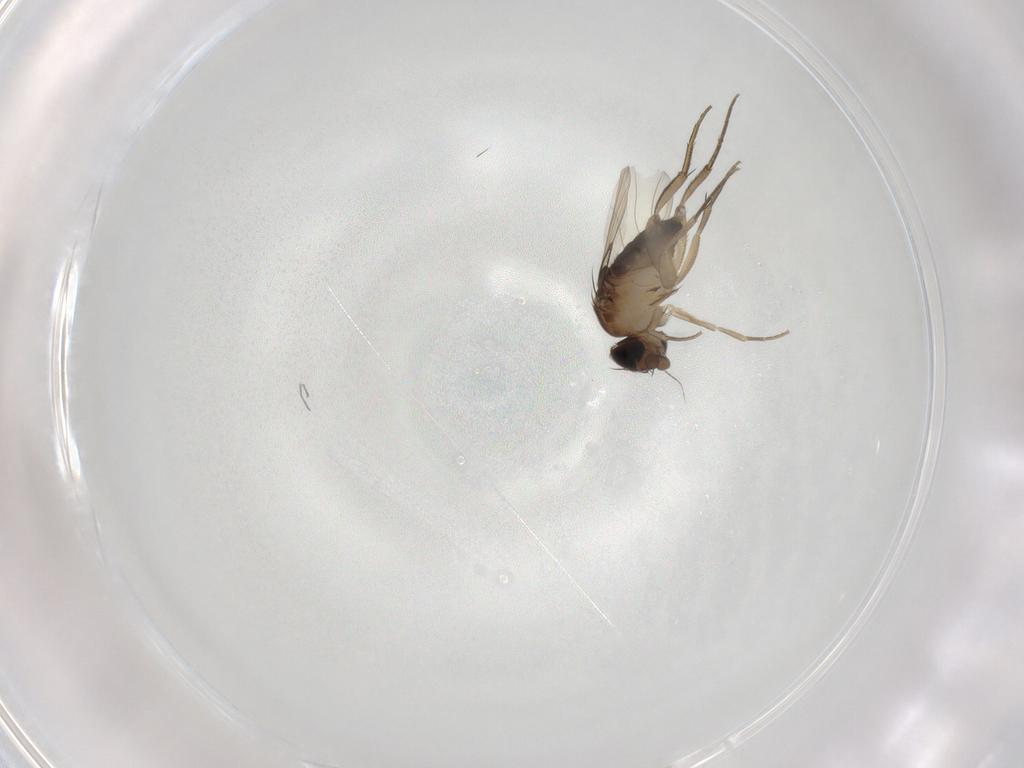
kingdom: Animalia
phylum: Arthropoda
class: Insecta
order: Diptera
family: Phoridae
